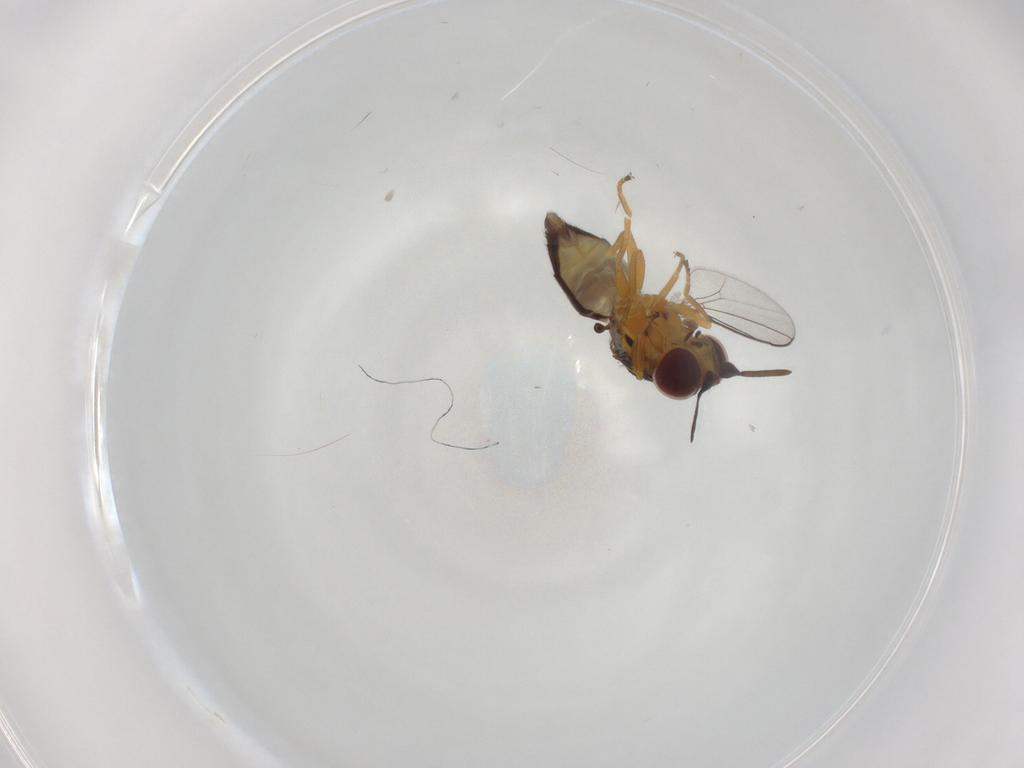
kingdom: Animalia
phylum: Arthropoda
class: Insecta
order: Diptera
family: Chloropidae
